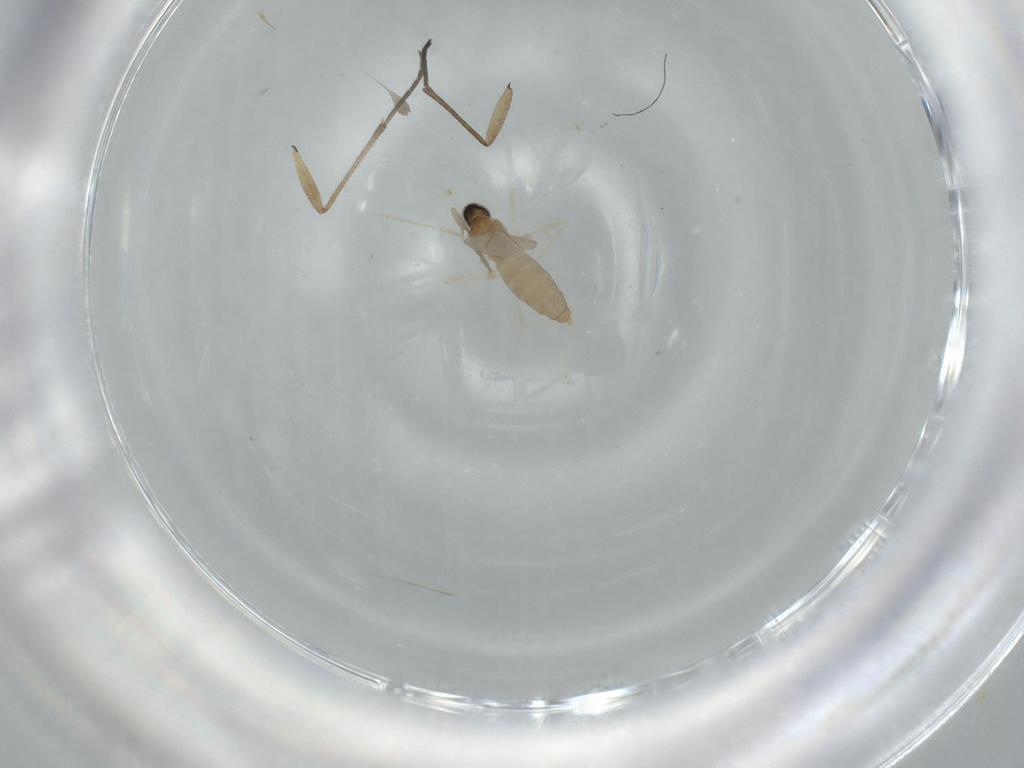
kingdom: Animalia
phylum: Arthropoda
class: Insecta
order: Diptera
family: Cecidomyiidae
